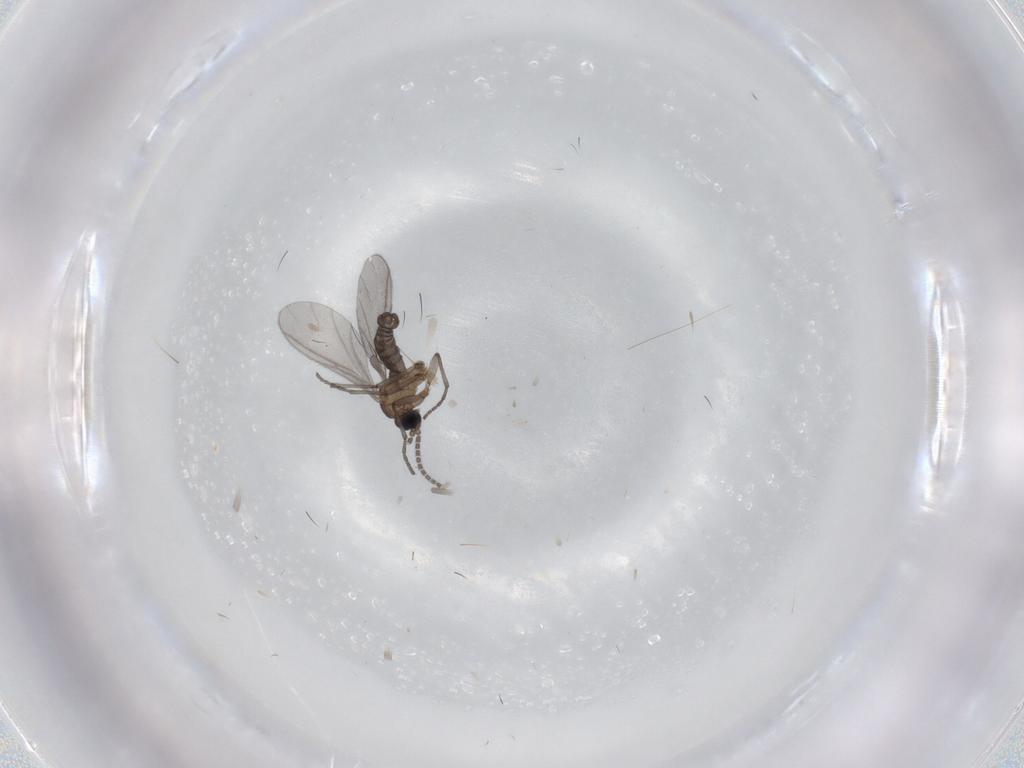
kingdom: Animalia
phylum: Arthropoda
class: Insecta
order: Diptera
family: Sciaridae
